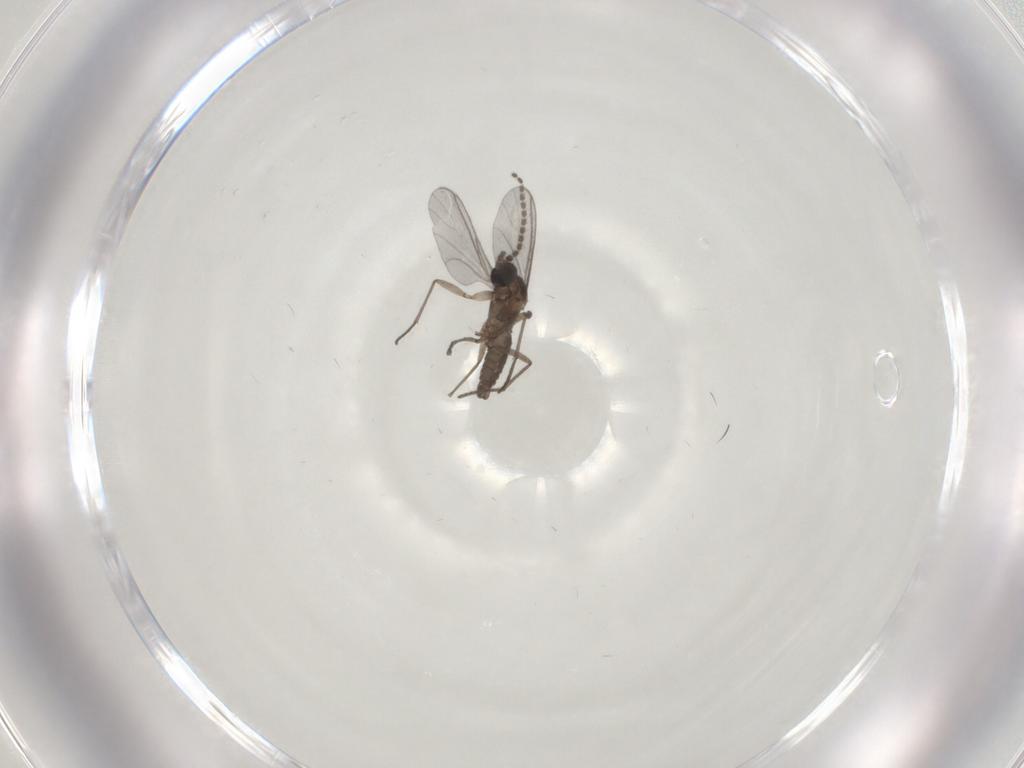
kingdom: Animalia
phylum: Arthropoda
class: Insecta
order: Diptera
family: Sciaridae
